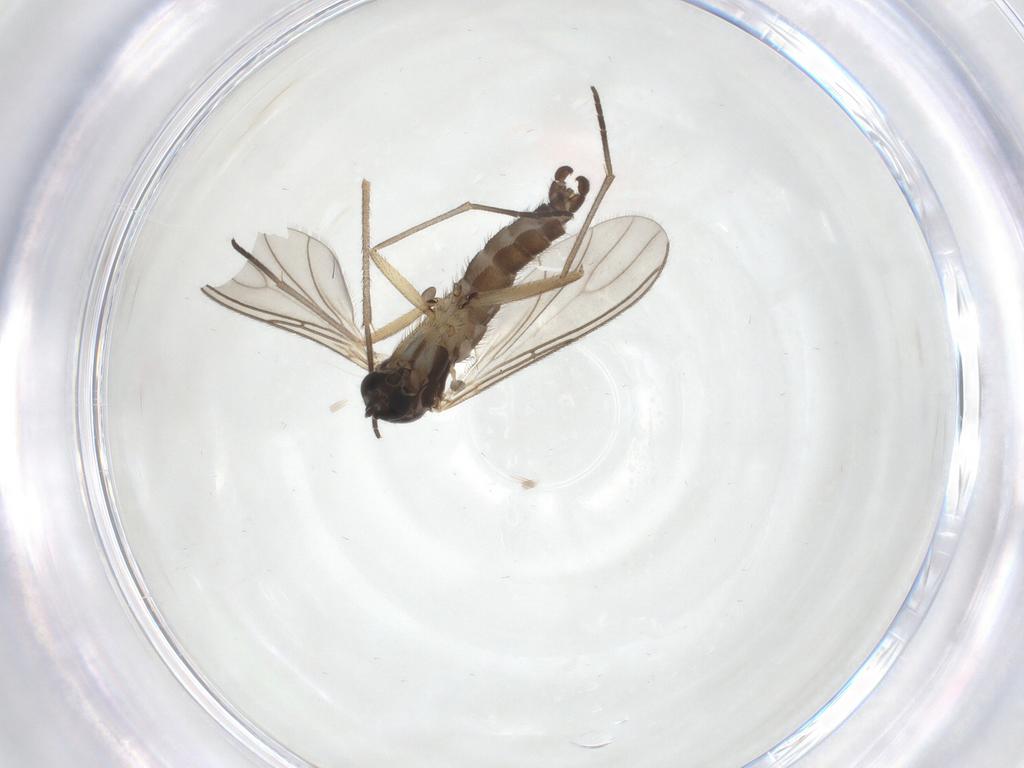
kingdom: Animalia
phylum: Arthropoda
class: Insecta
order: Diptera
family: Sciaridae
